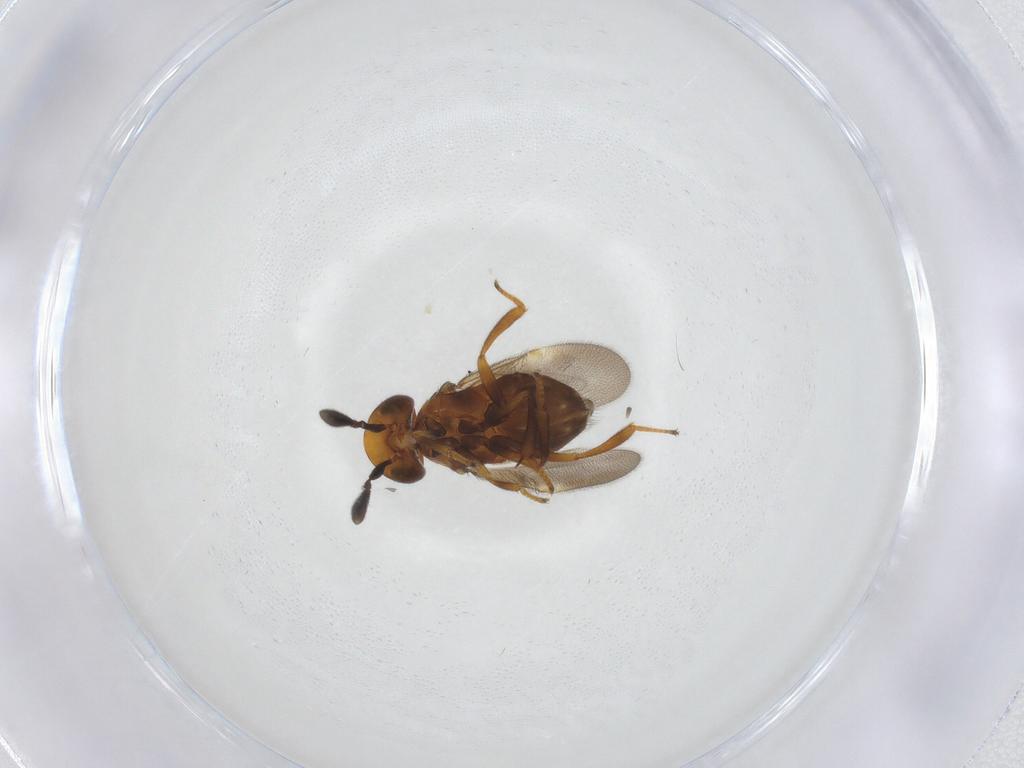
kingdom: Animalia
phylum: Arthropoda
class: Insecta
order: Hymenoptera
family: Encyrtidae
